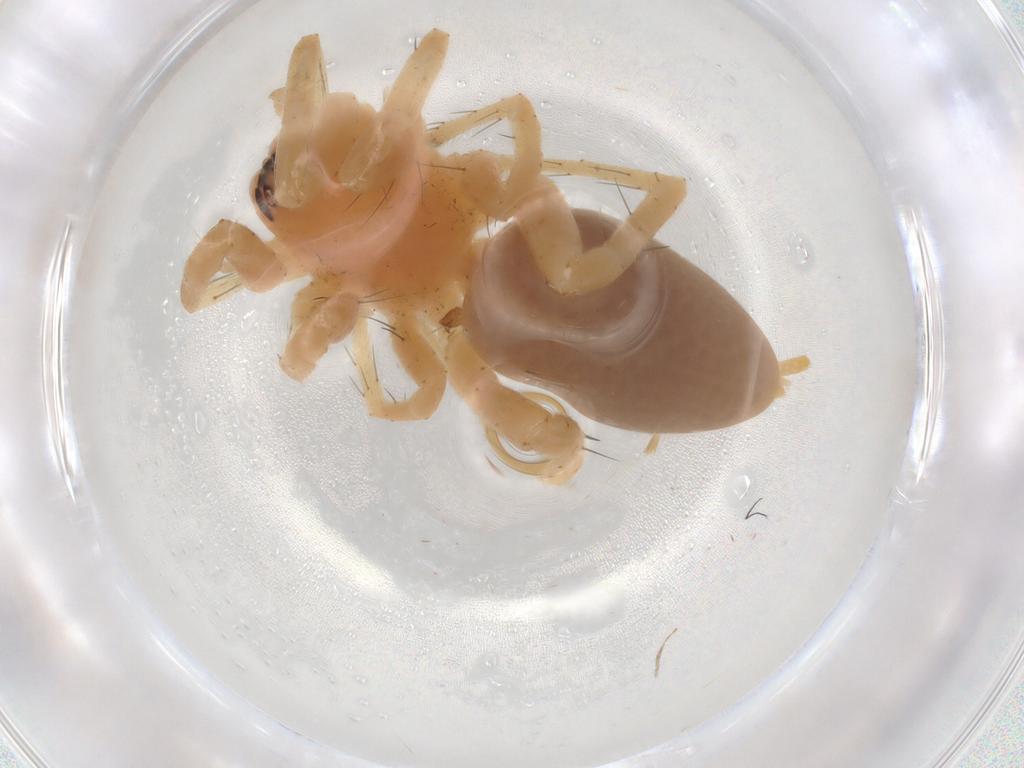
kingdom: Animalia
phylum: Arthropoda
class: Arachnida
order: Araneae
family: Anyphaenidae
